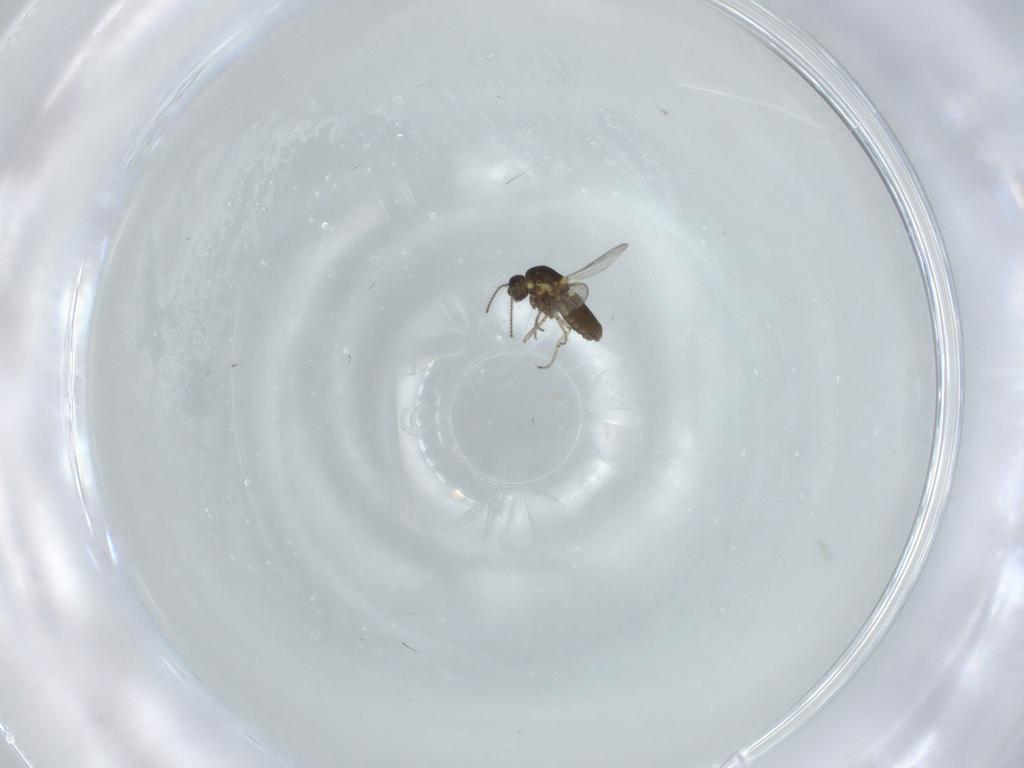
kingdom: Animalia
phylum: Arthropoda
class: Insecta
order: Diptera
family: Ceratopogonidae
